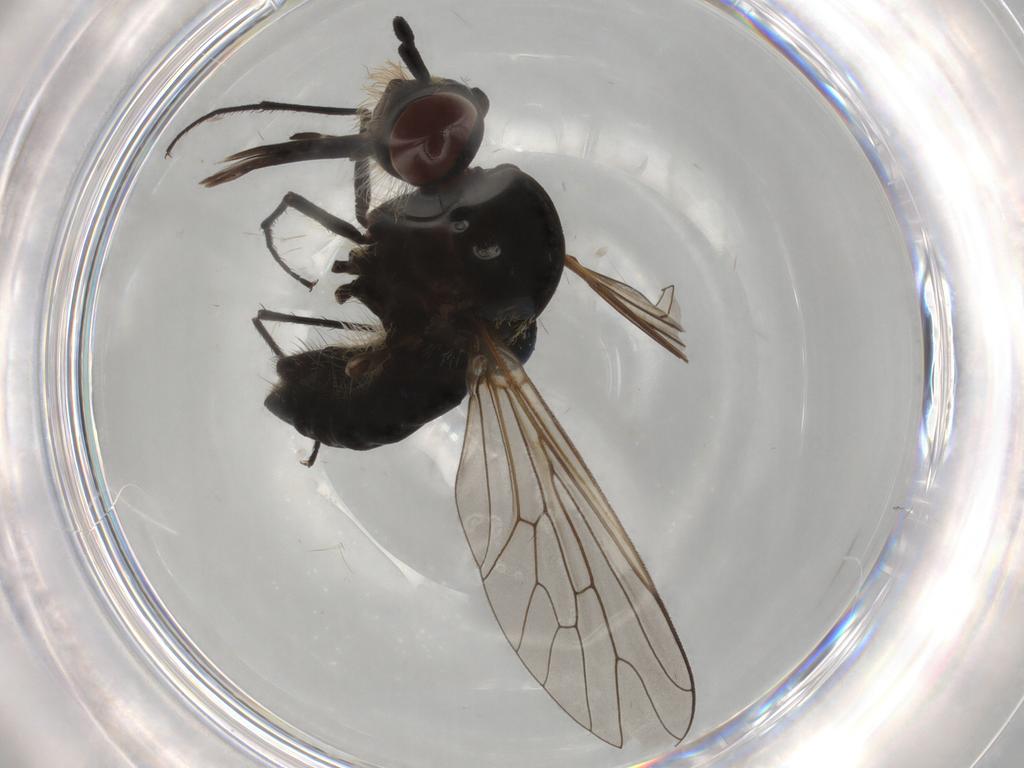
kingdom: Animalia
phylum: Arthropoda
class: Insecta
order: Diptera
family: Bombyliidae
